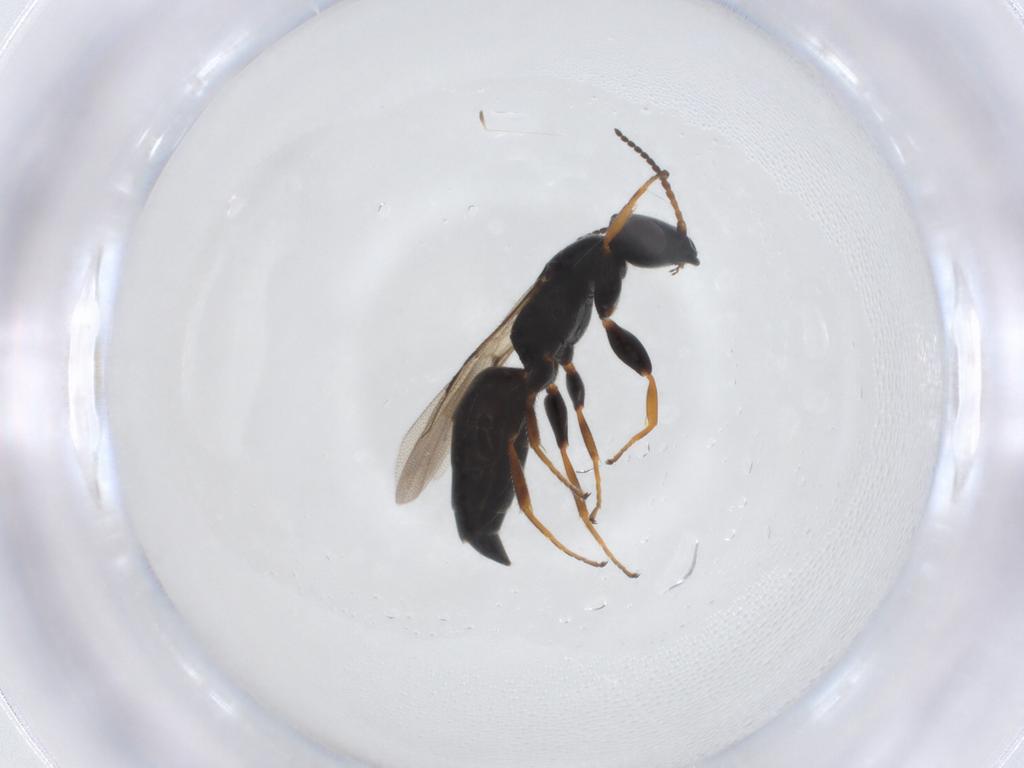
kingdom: Animalia
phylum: Arthropoda
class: Insecta
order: Hymenoptera
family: Bethylidae
